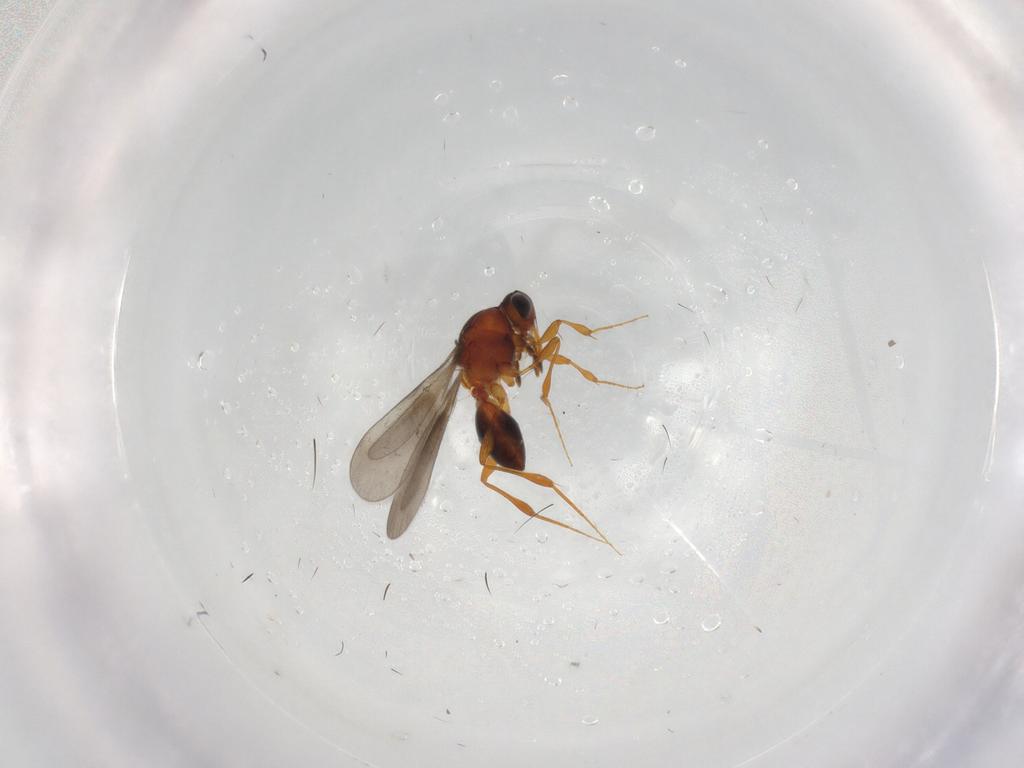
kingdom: Animalia
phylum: Arthropoda
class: Insecta
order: Hymenoptera
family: Platygastridae
